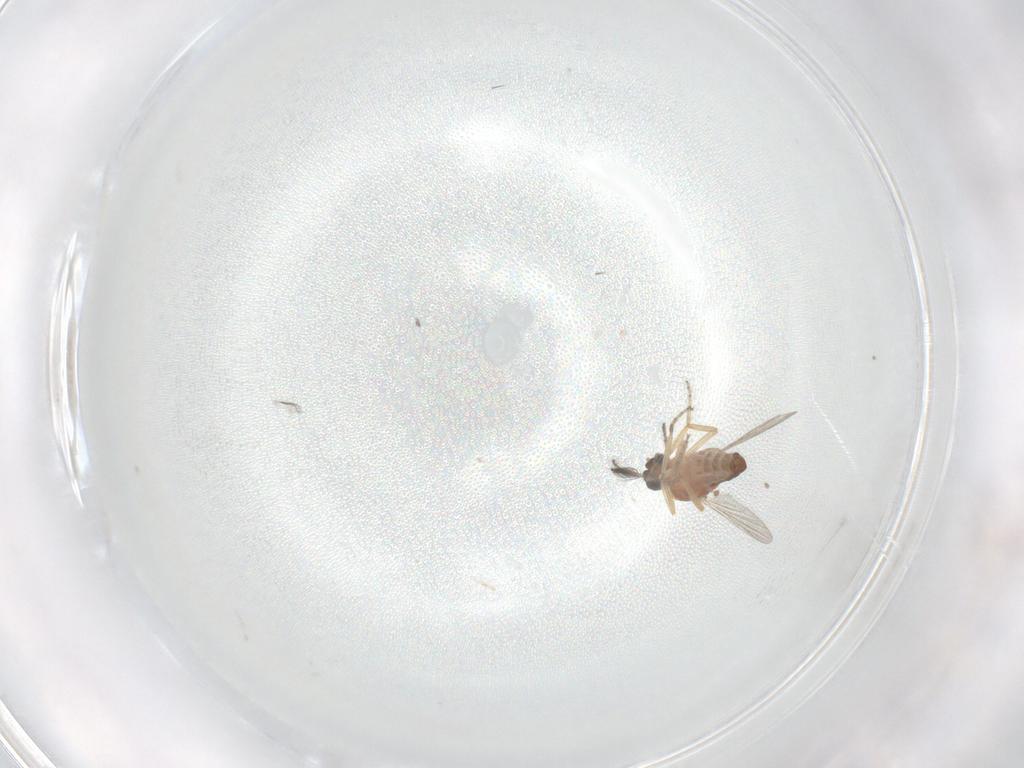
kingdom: Animalia
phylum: Arthropoda
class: Insecta
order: Diptera
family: Ceratopogonidae
